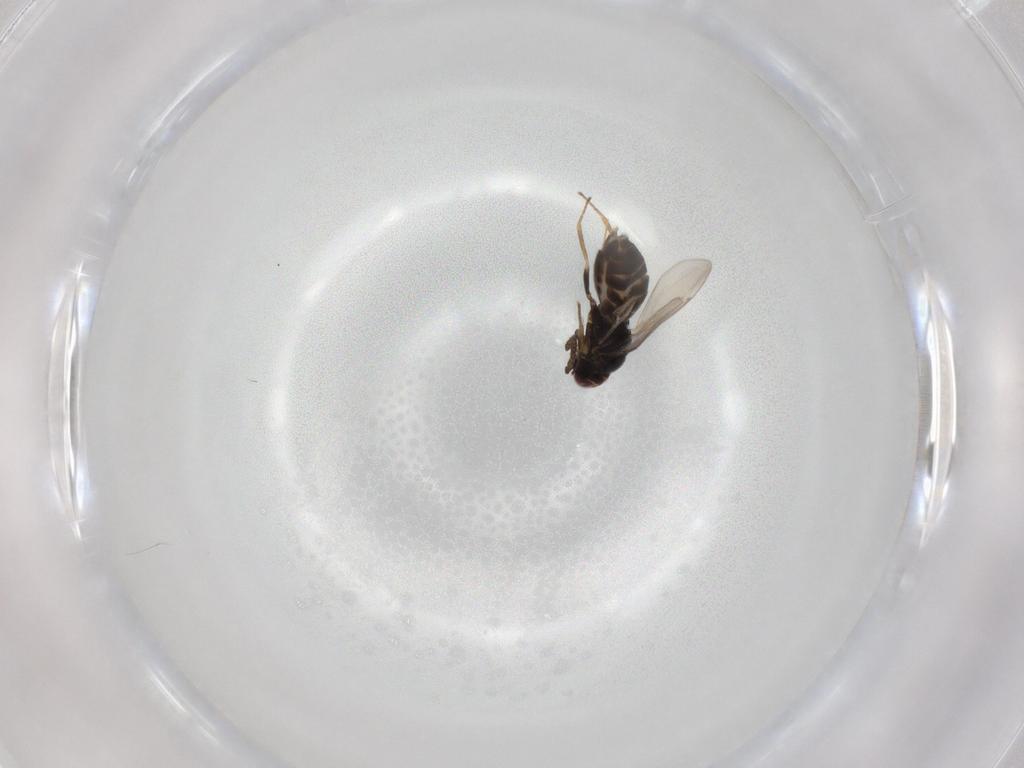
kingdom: Animalia
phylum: Arthropoda
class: Insecta
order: Hymenoptera
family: Aphelinidae
